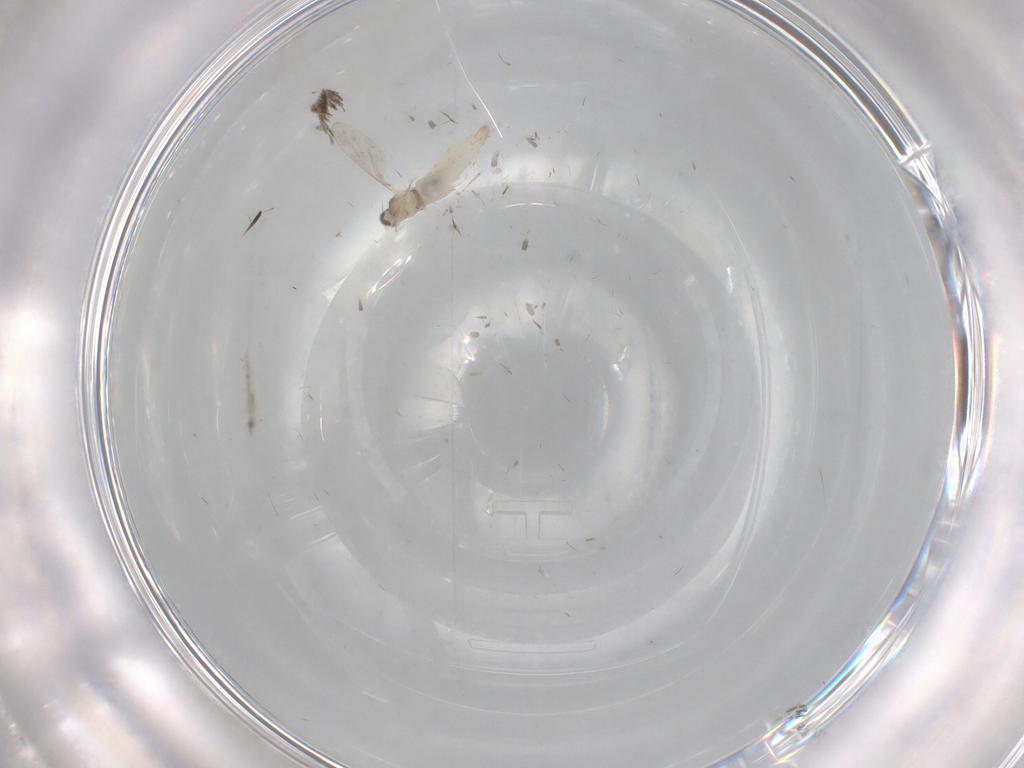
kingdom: Animalia
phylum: Arthropoda
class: Insecta
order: Diptera
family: Cecidomyiidae
